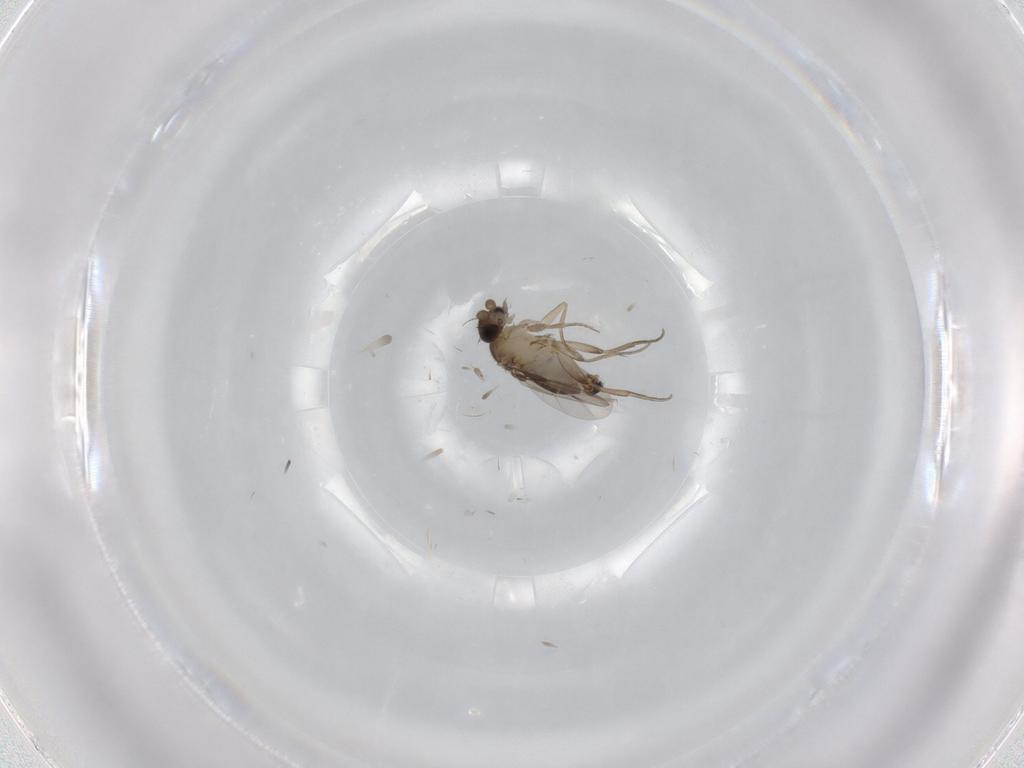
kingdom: Animalia
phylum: Arthropoda
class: Insecta
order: Diptera
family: Phoridae
